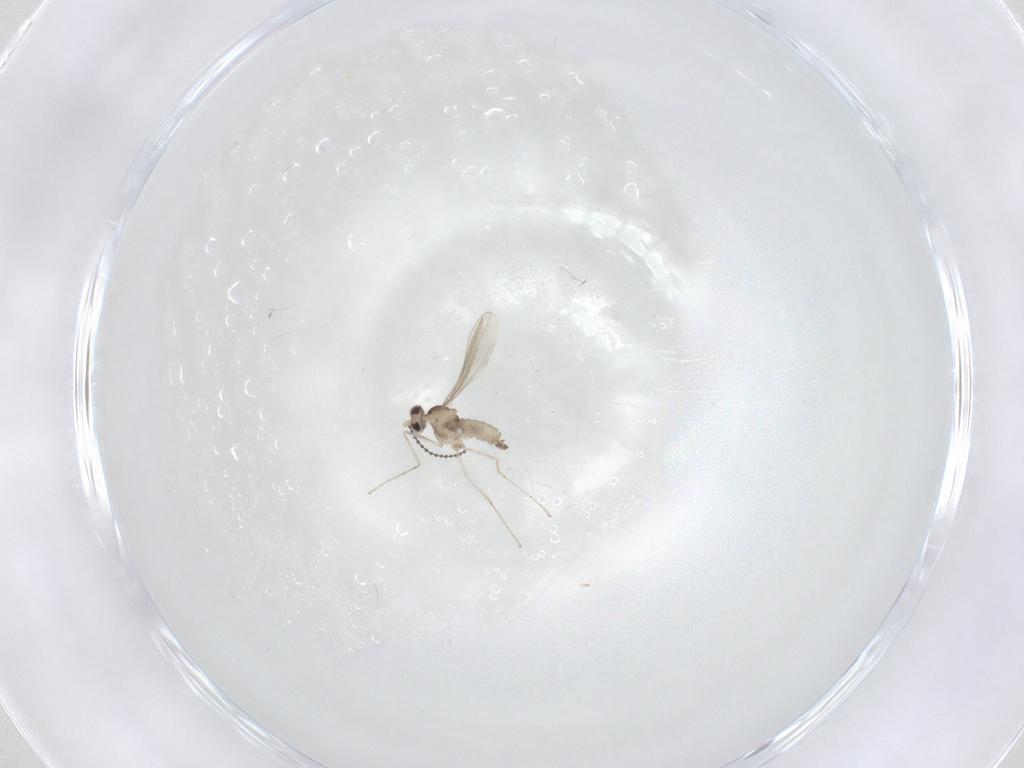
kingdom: Animalia
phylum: Arthropoda
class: Insecta
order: Diptera
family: Cecidomyiidae
